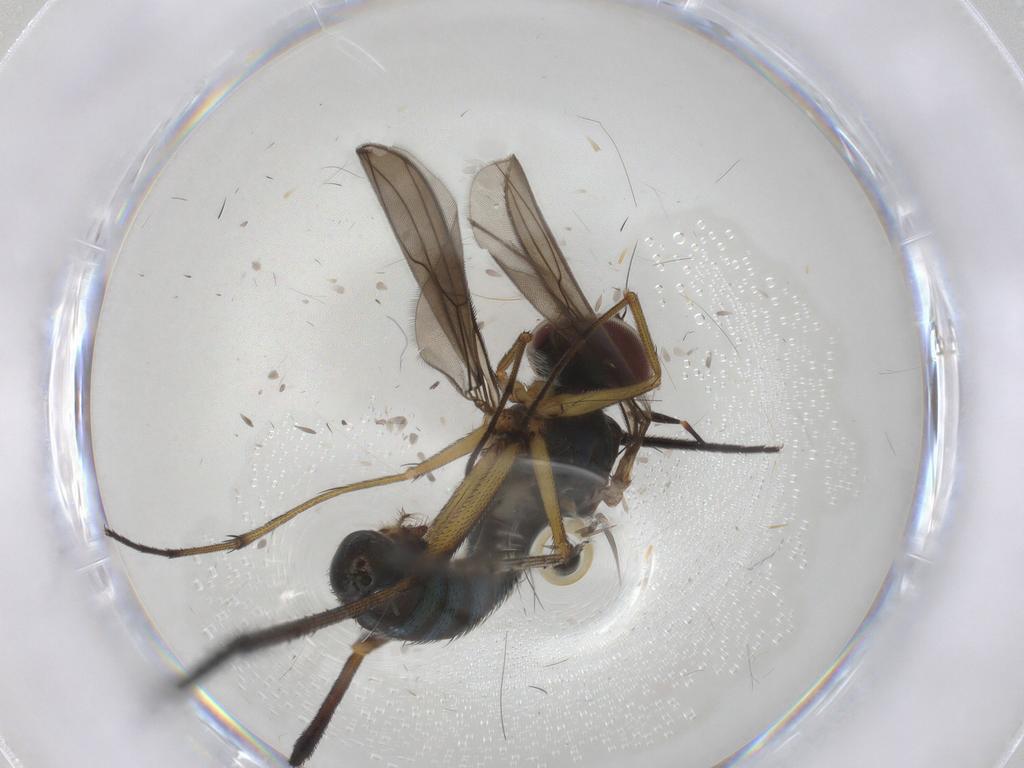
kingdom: Animalia
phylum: Arthropoda
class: Insecta
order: Diptera
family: Dolichopodidae
